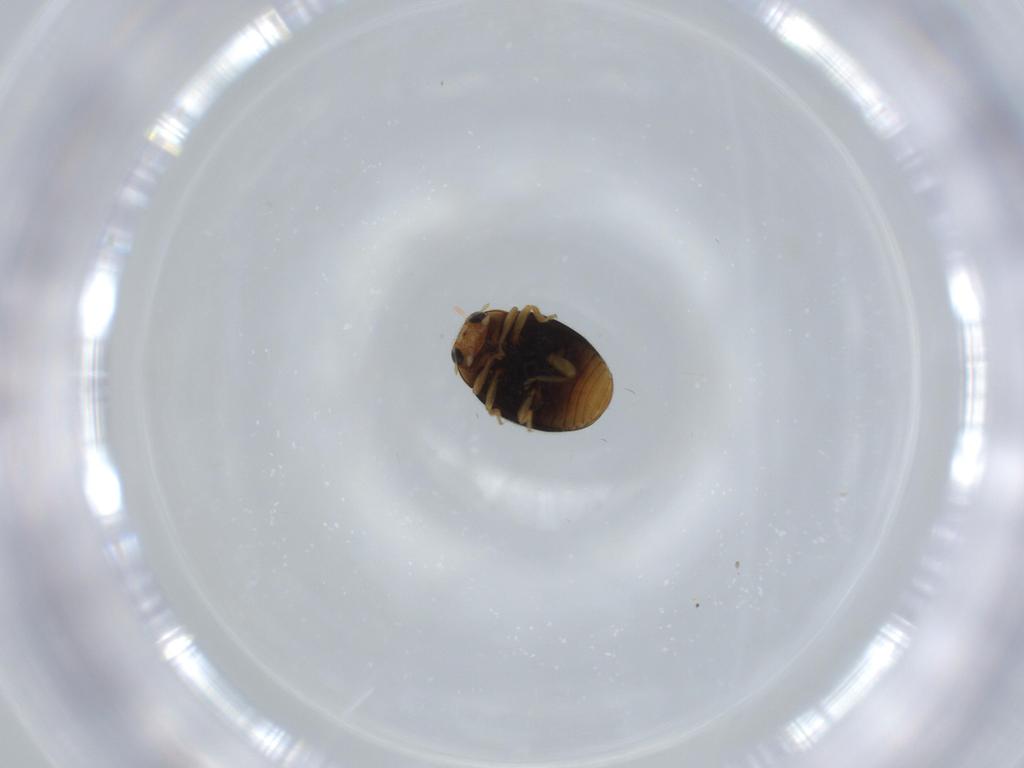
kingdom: Animalia
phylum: Arthropoda
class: Insecta
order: Coleoptera
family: Coccinellidae
